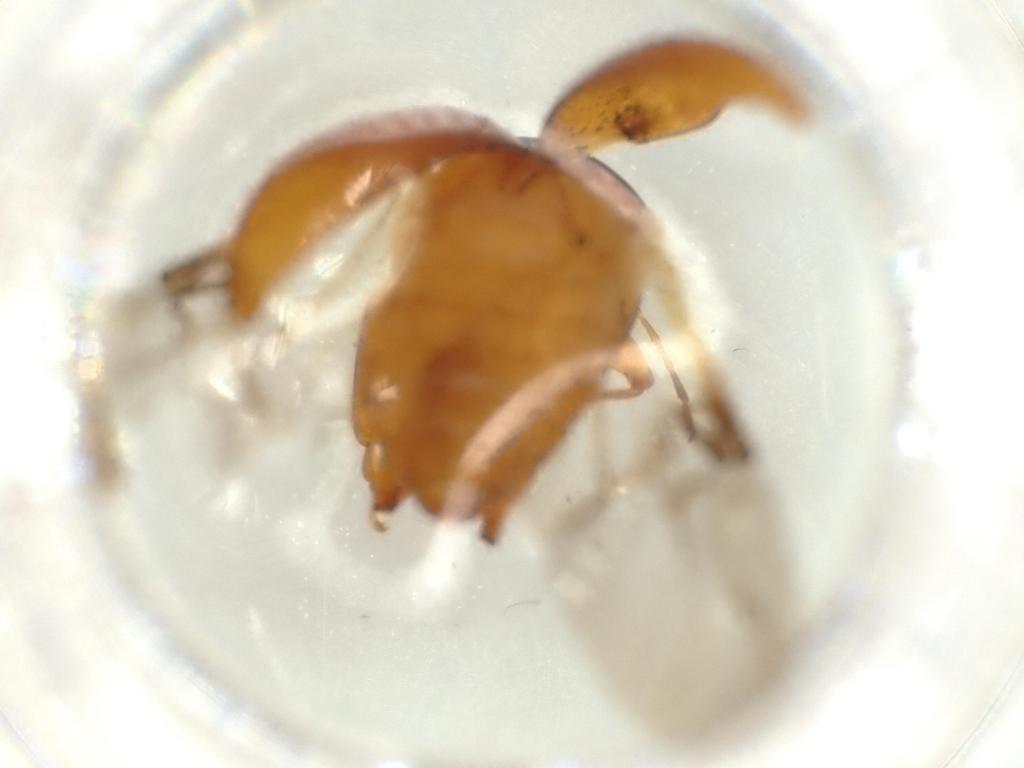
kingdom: Animalia
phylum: Arthropoda
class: Insecta
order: Coleoptera
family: Chrysomelidae
